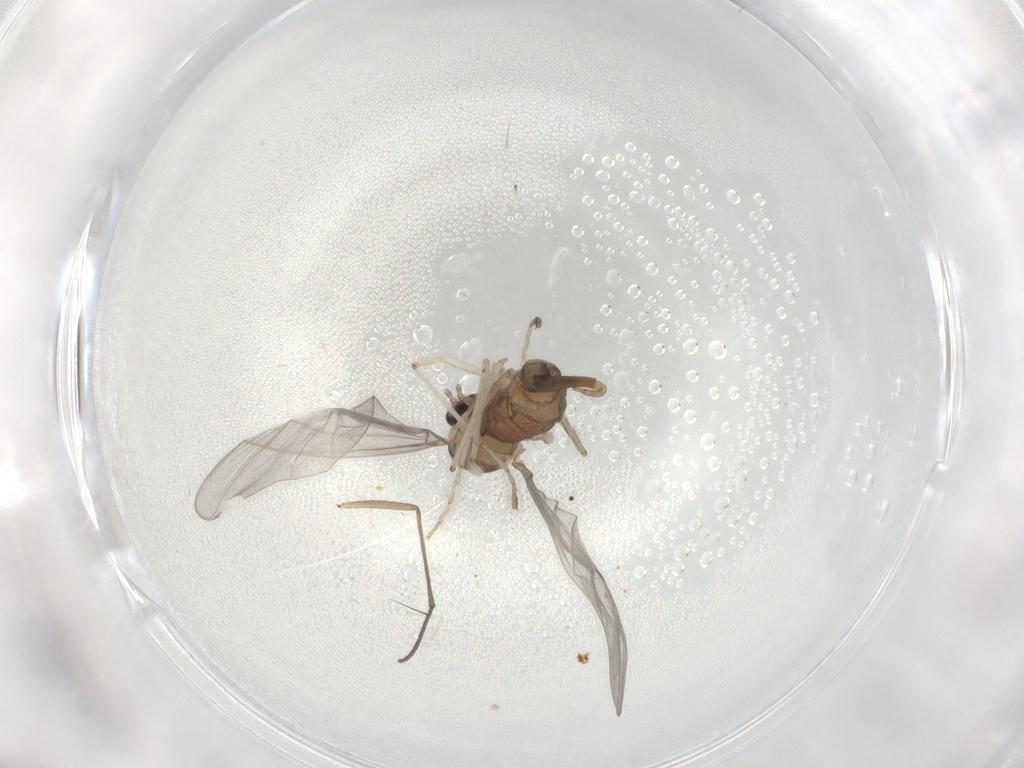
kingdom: Animalia
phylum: Arthropoda
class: Insecta
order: Diptera
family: Cecidomyiidae
